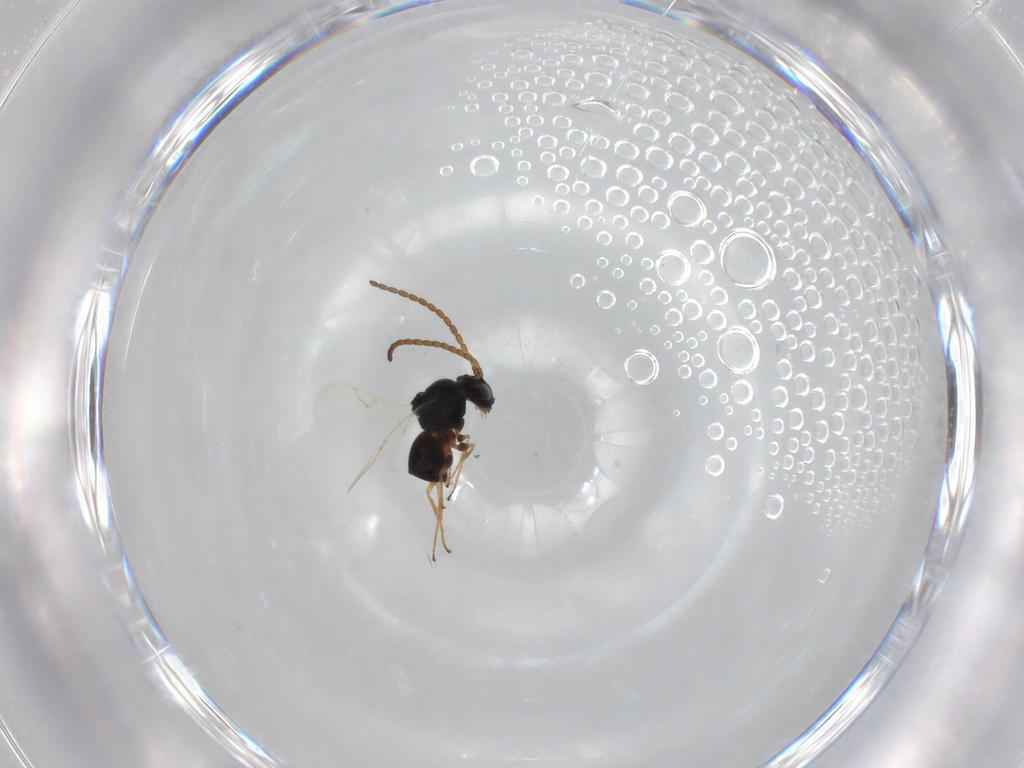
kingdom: Animalia
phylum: Arthropoda
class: Insecta
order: Hymenoptera
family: Figitidae
